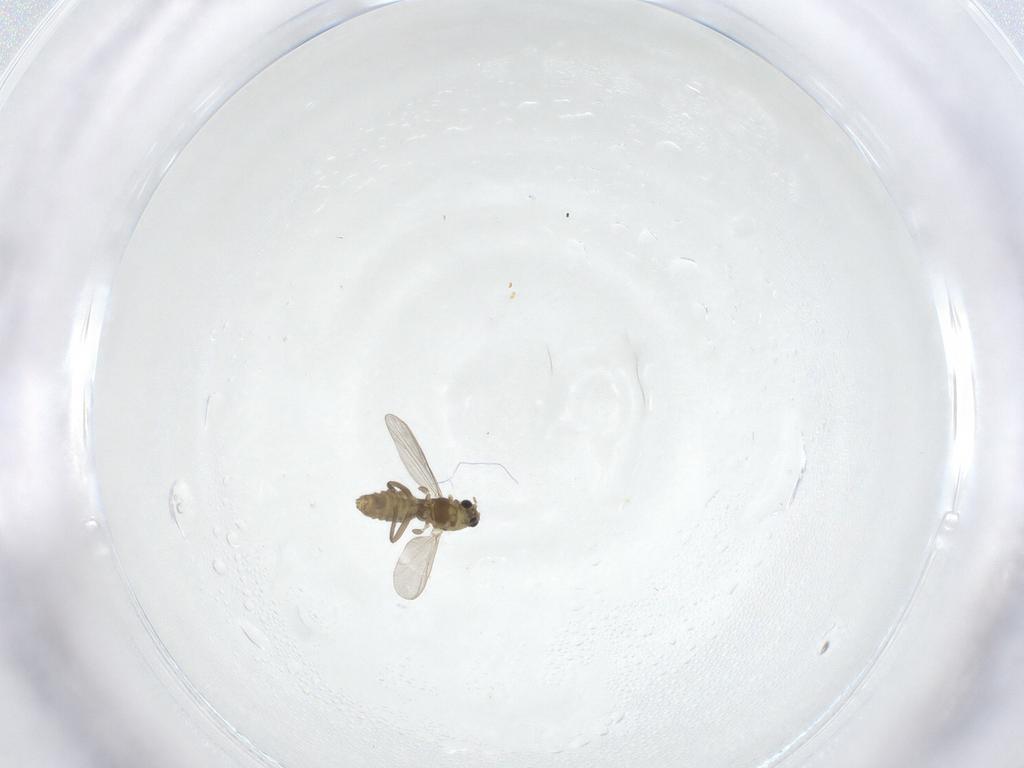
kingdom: Animalia
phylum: Arthropoda
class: Insecta
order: Diptera
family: Chironomidae
